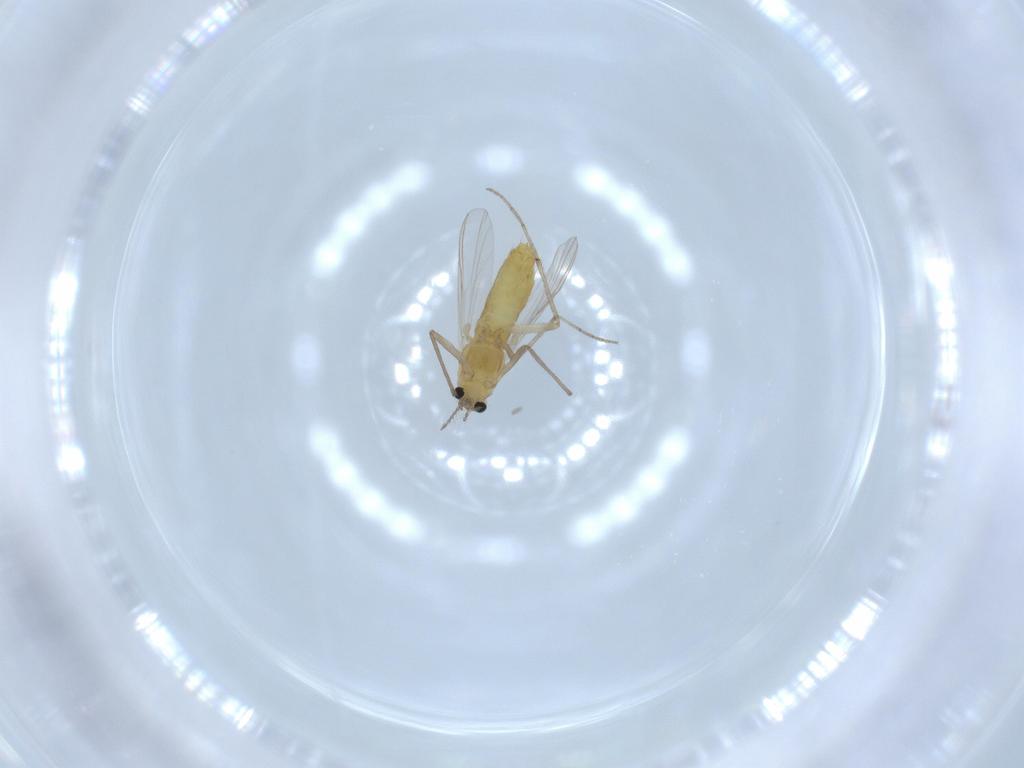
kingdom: Animalia
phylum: Arthropoda
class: Insecta
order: Diptera
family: Chironomidae
